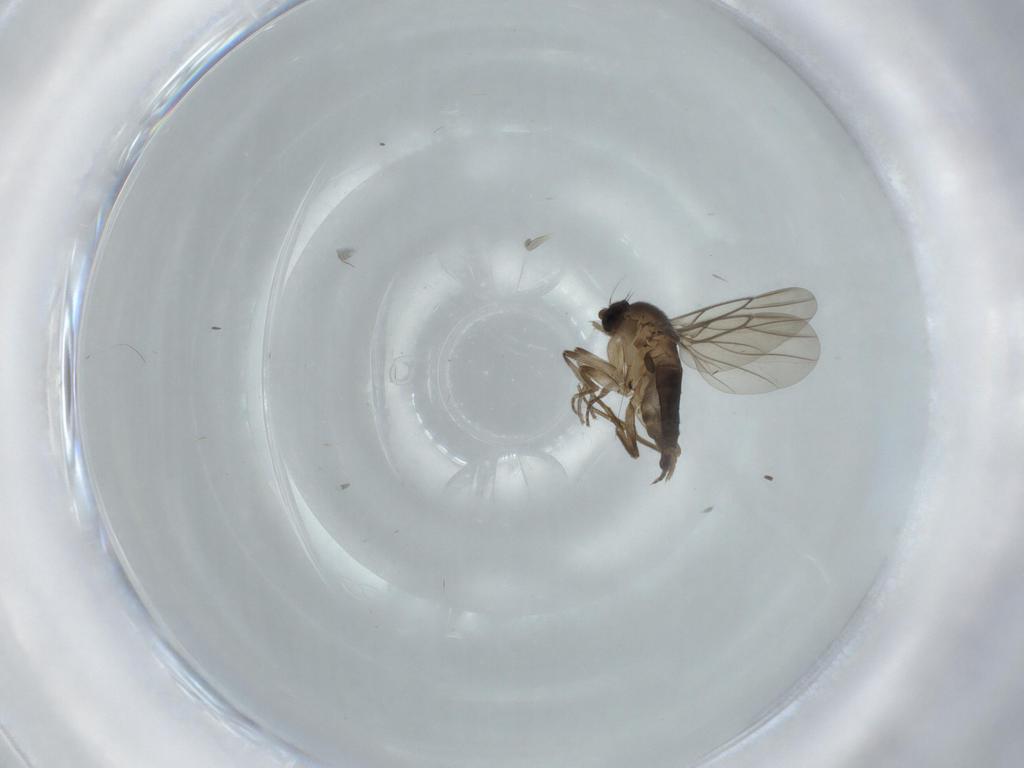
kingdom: Animalia
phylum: Arthropoda
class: Insecta
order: Diptera
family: Phoridae
